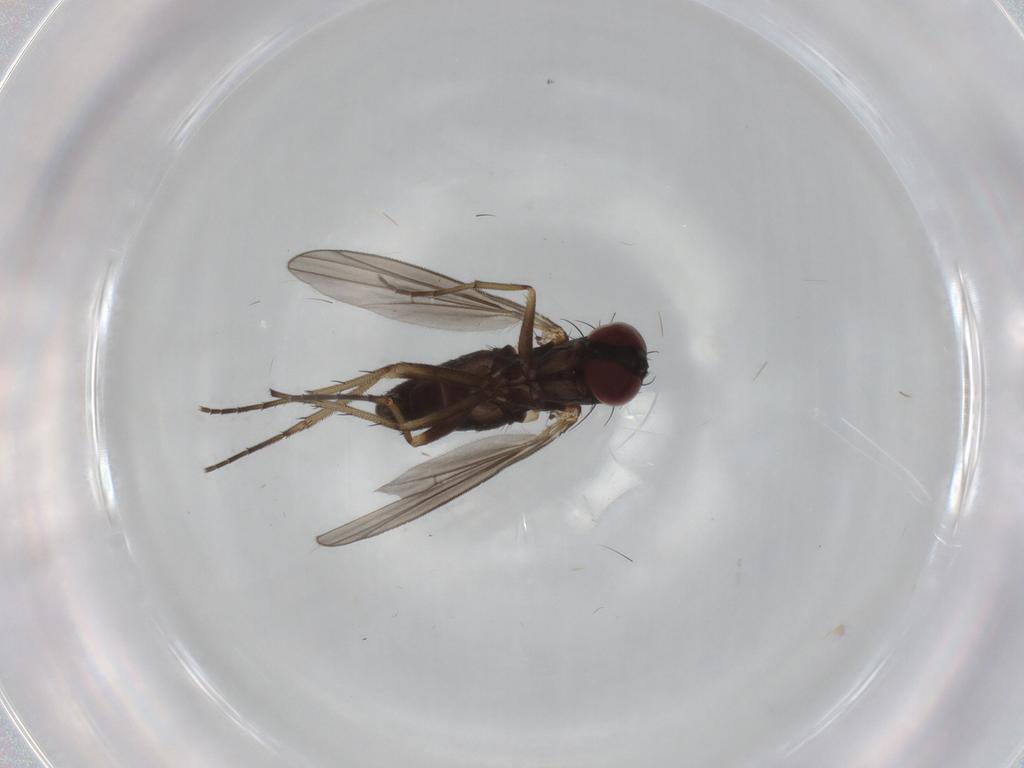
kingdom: Animalia
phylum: Arthropoda
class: Insecta
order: Diptera
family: Dolichopodidae
